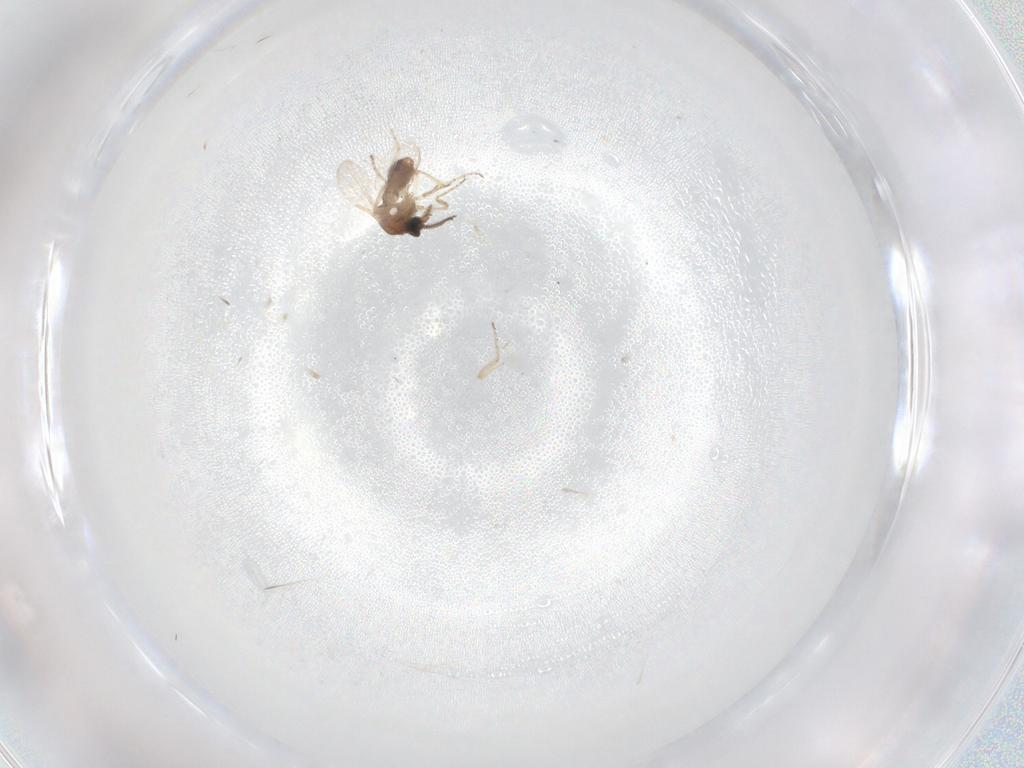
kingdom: Animalia
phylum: Arthropoda
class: Insecta
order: Diptera
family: Ceratopogonidae
